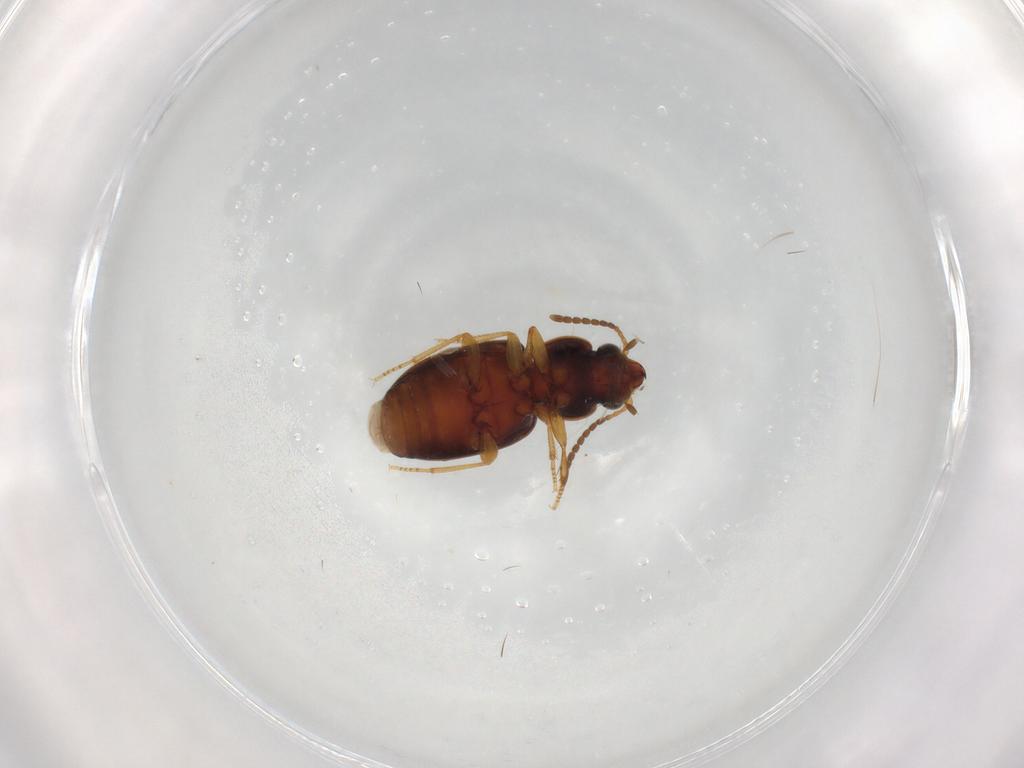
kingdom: Animalia
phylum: Arthropoda
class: Insecta
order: Coleoptera
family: Carabidae
